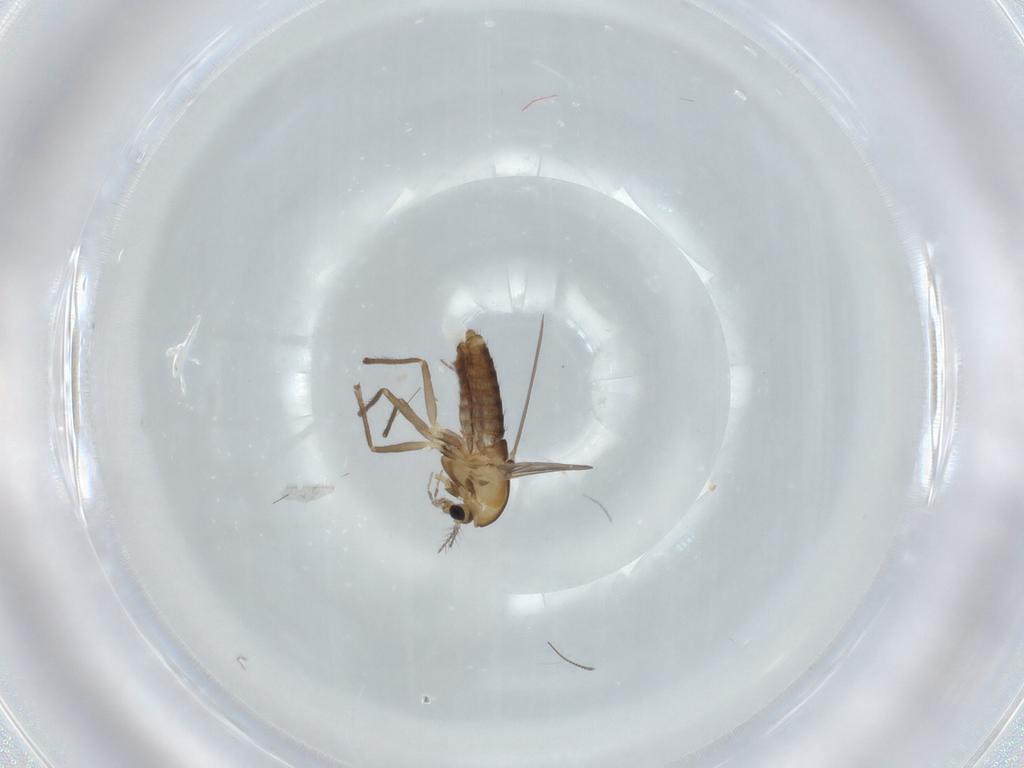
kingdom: Animalia
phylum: Arthropoda
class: Insecta
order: Diptera
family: Chironomidae
